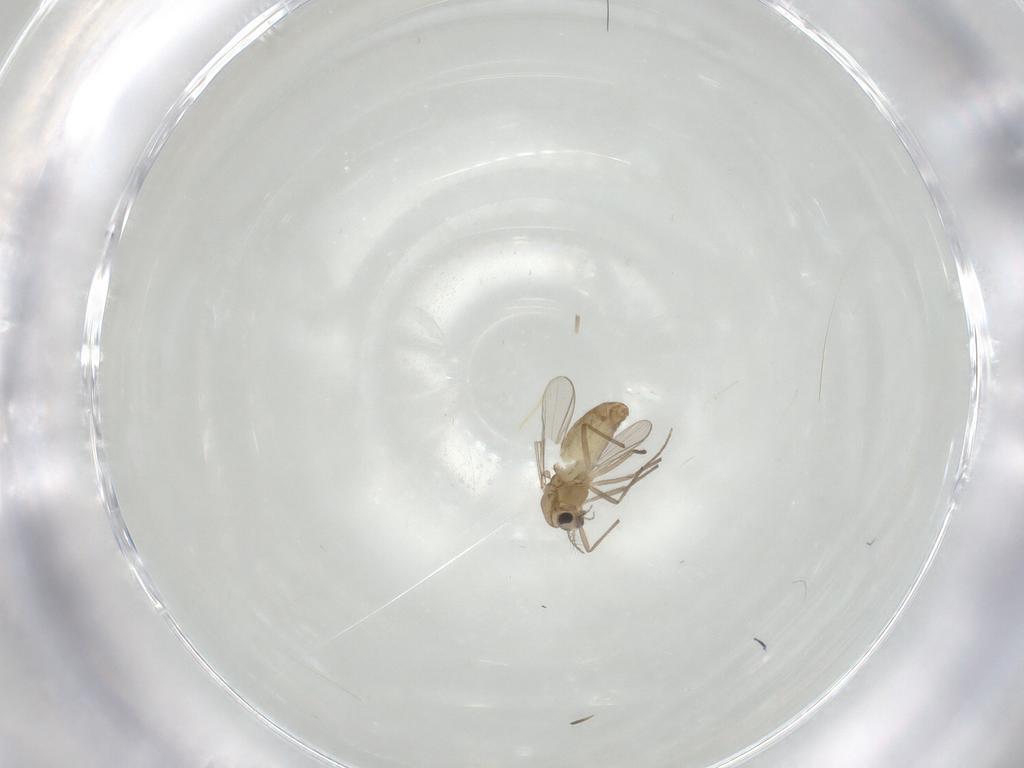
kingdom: Animalia
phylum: Arthropoda
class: Insecta
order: Diptera
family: Chironomidae
